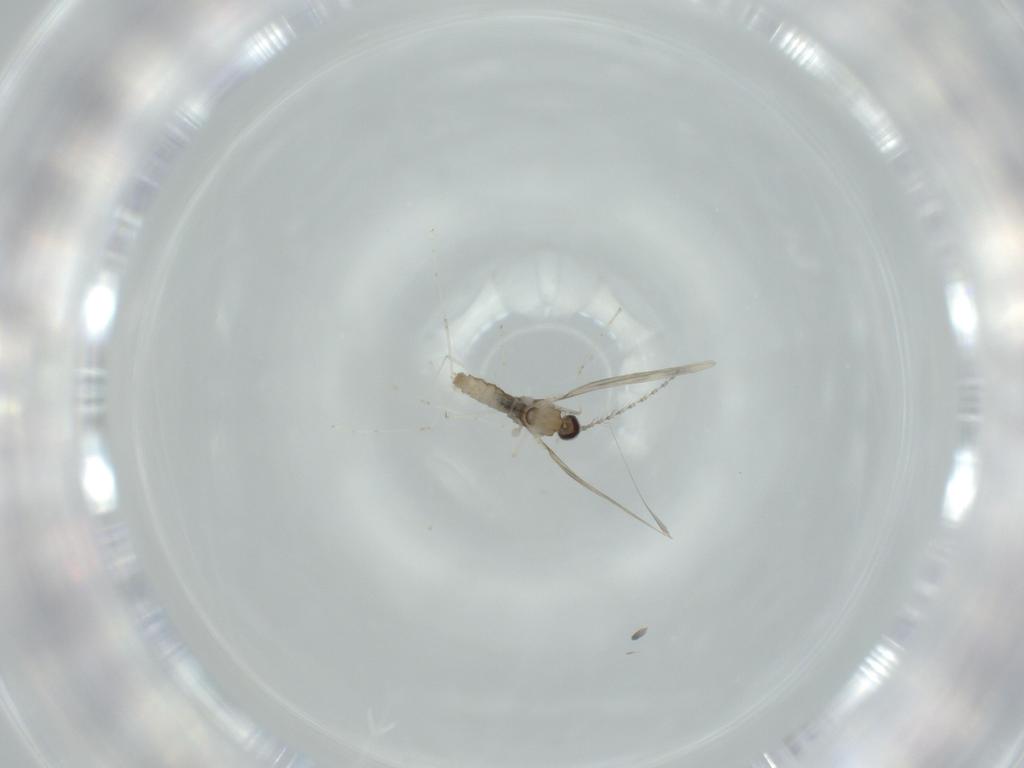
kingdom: Animalia
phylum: Arthropoda
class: Insecta
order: Diptera
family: Cecidomyiidae
